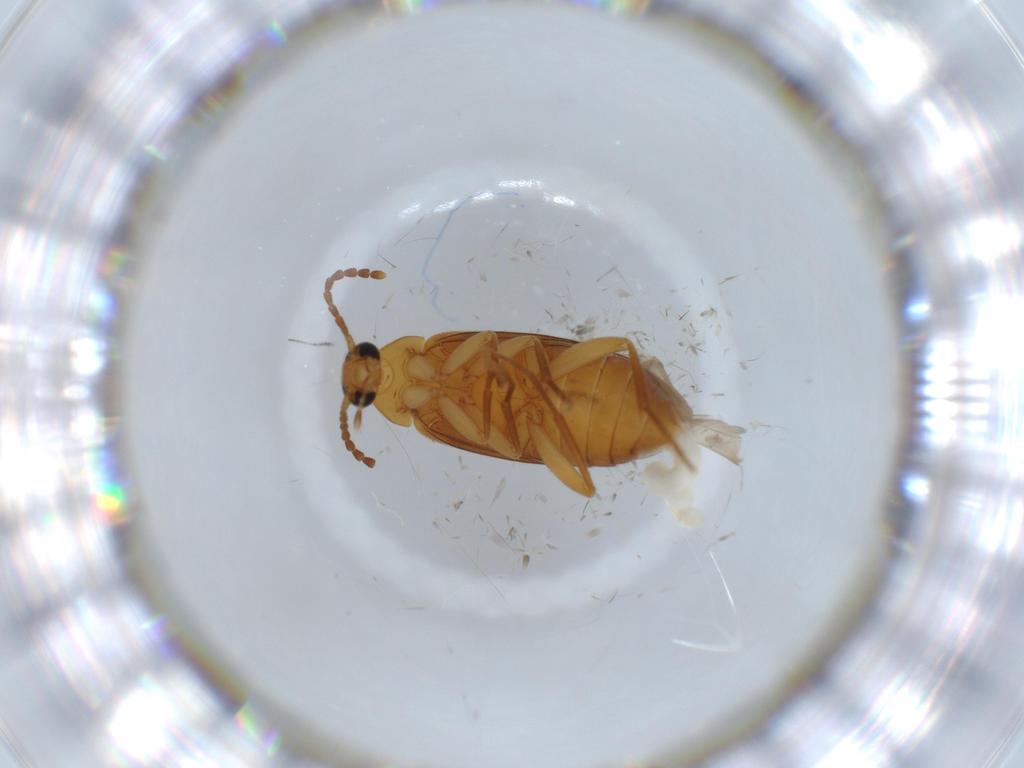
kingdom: Animalia
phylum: Arthropoda
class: Insecta
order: Coleoptera
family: Scraptiidae
